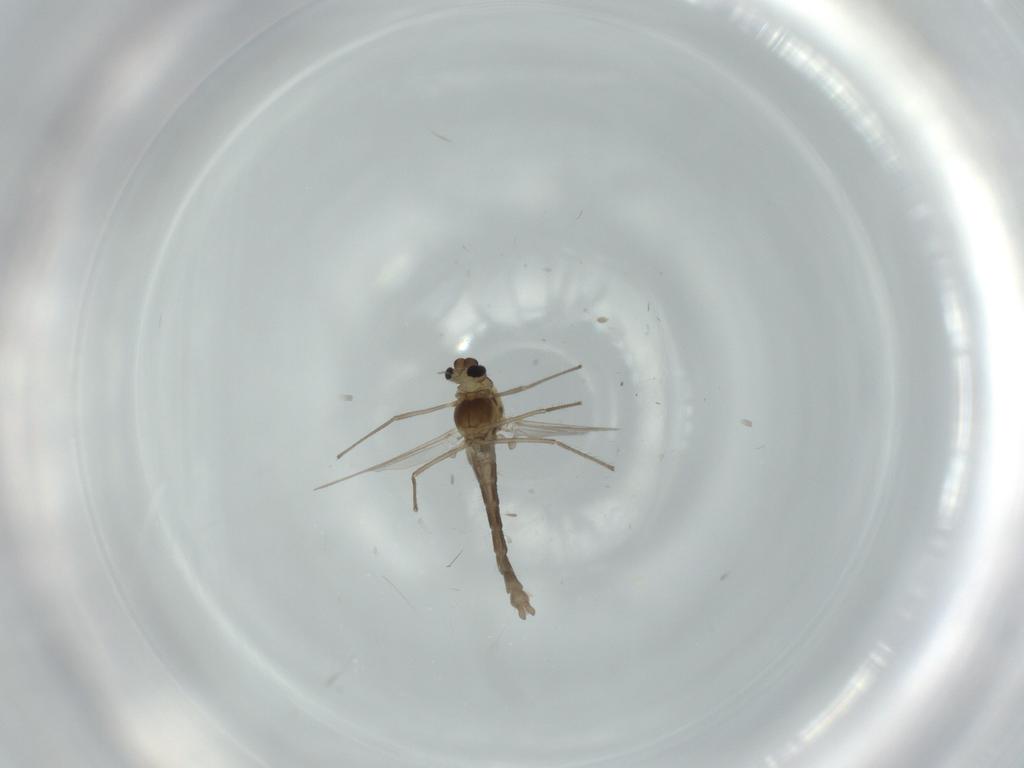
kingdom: Animalia
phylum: Arthropoda
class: Insecta
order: Diptera
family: Chironomidae
